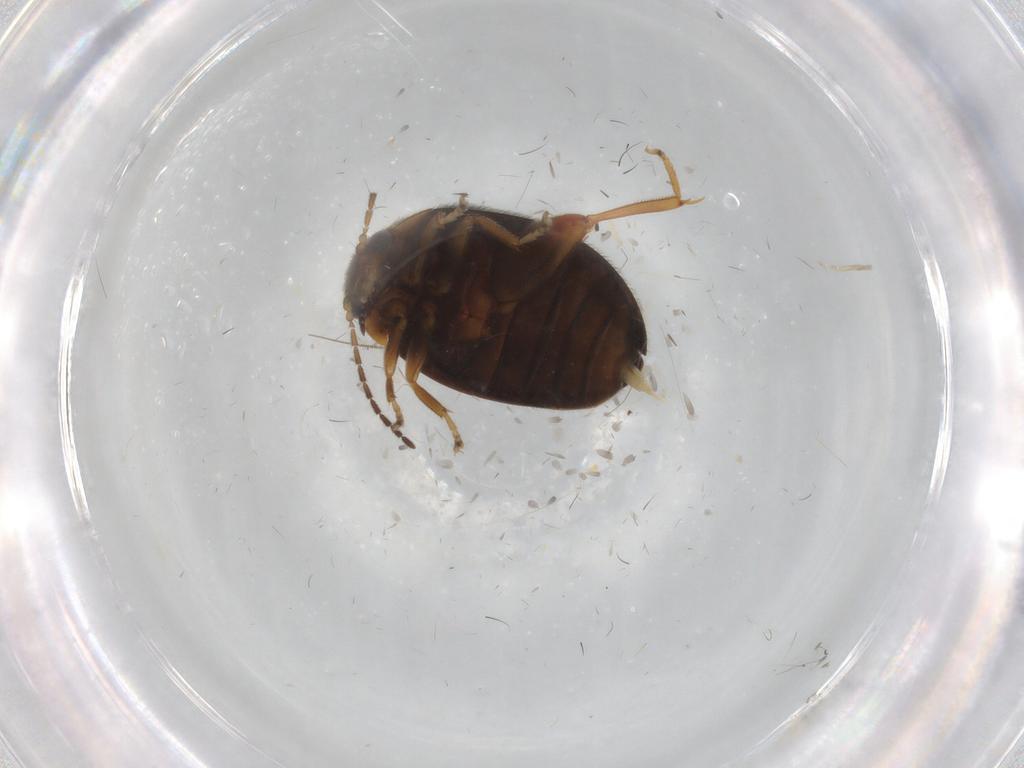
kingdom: Animalia
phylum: Arthropoda
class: Insecta
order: Coleoptera
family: Scirtidae
